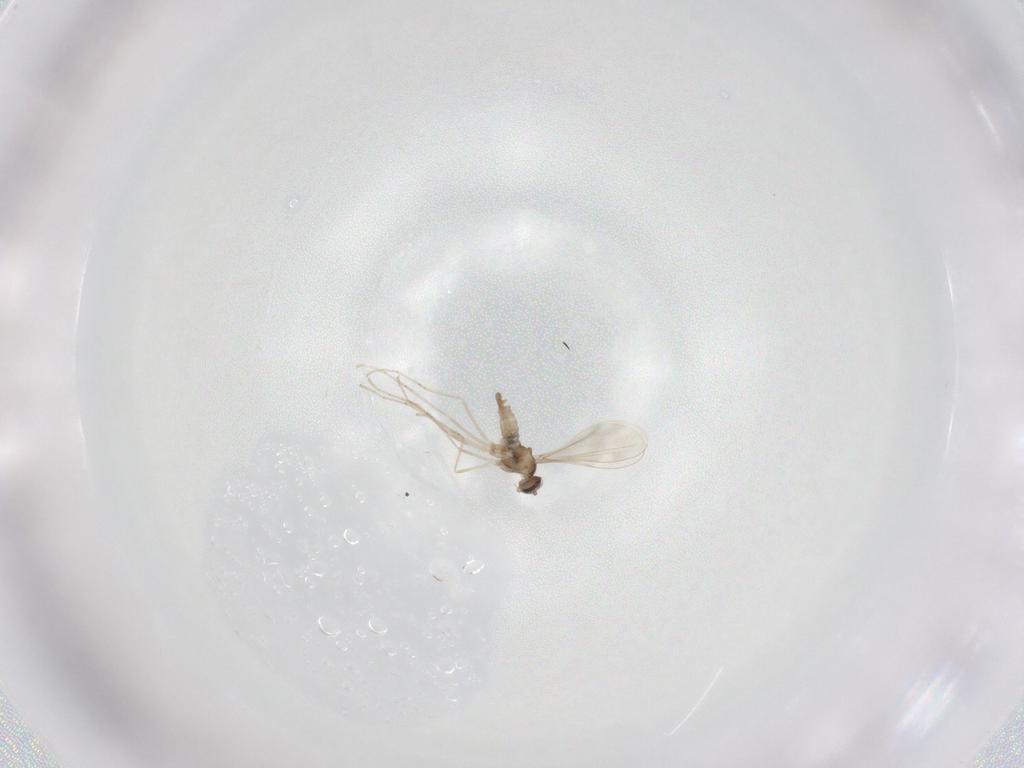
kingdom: Animalia
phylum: Arthropoda
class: Insecta
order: Diptera
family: Cecidomyiidae
